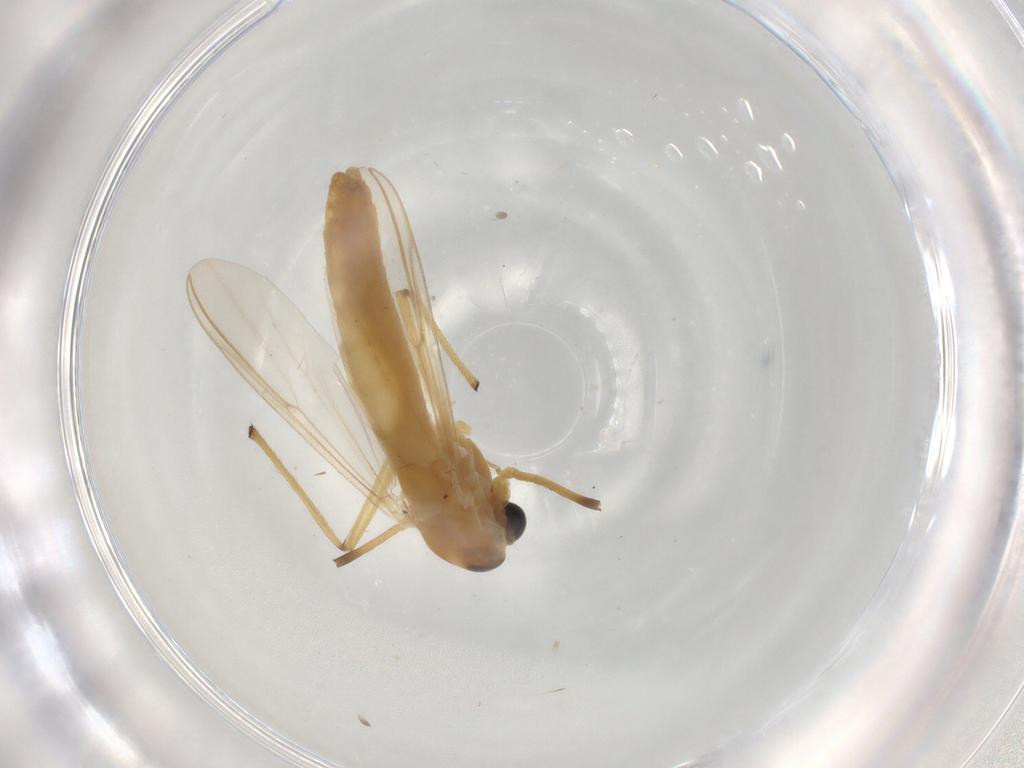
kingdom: Animalia
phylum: Arthropoda
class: Insecta
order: Diptera
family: Chironomidae
